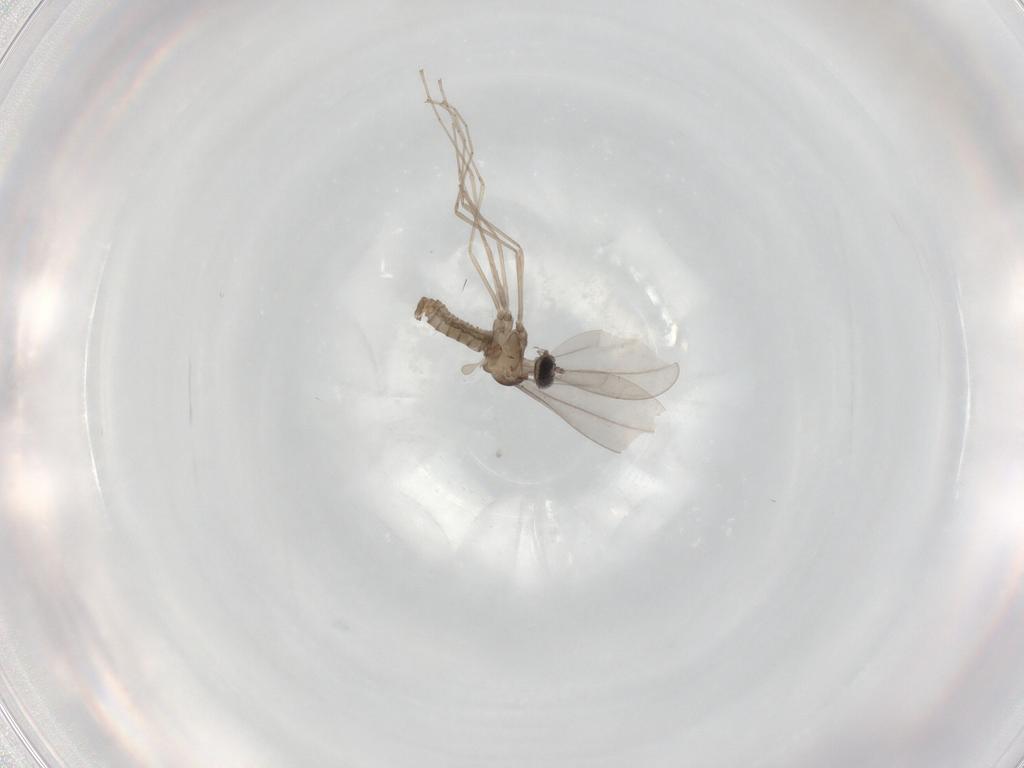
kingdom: Animalia
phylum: Arthropoda
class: Insecta
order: Diptera
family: Cecidomyiidae
